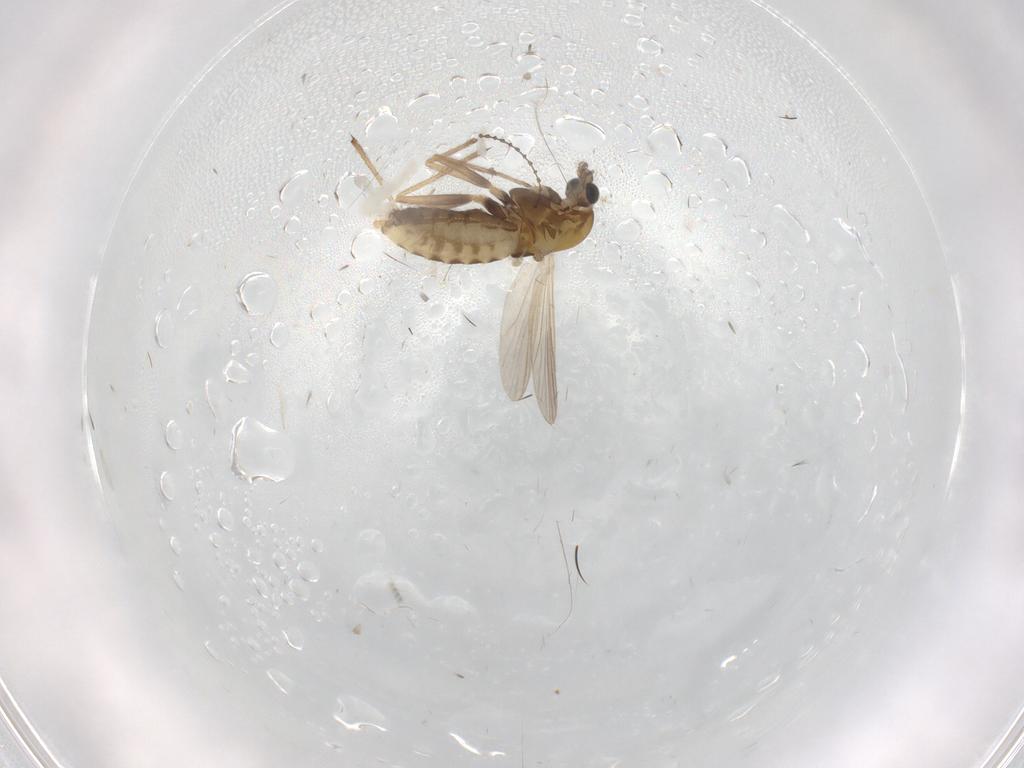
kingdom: Animalia
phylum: Arthropoda
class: Insecta
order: Diptera
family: Chironomidae
